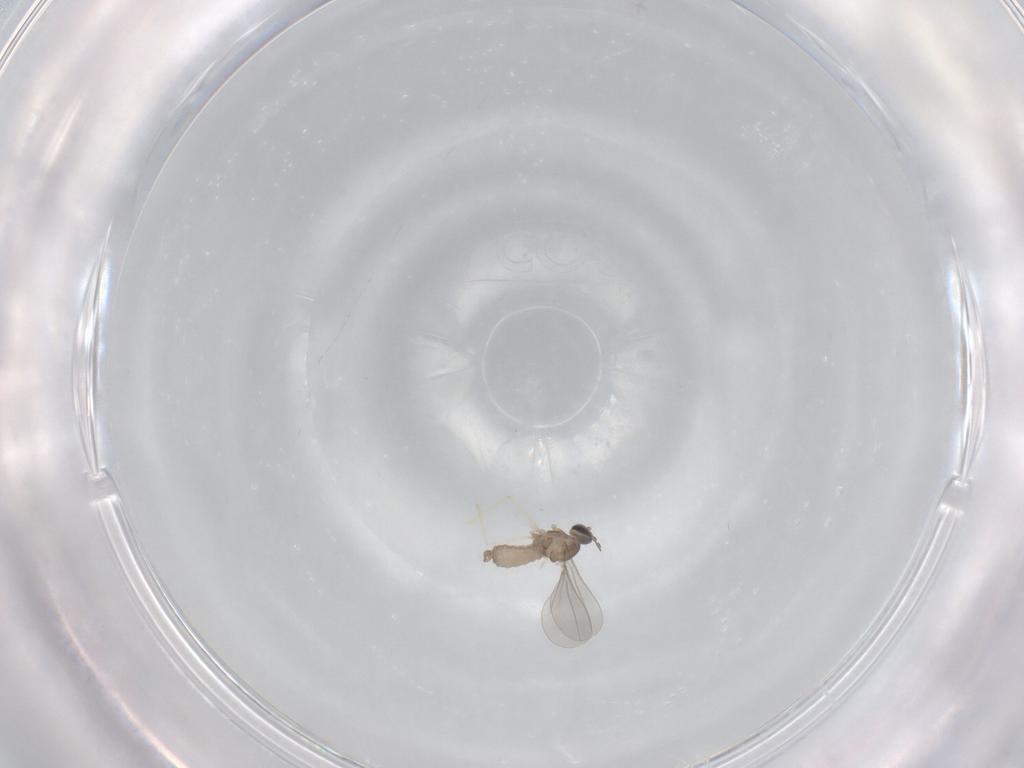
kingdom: Animalia
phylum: Arthropoda
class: Insecta
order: Diptera
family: Cecidomyiidae
